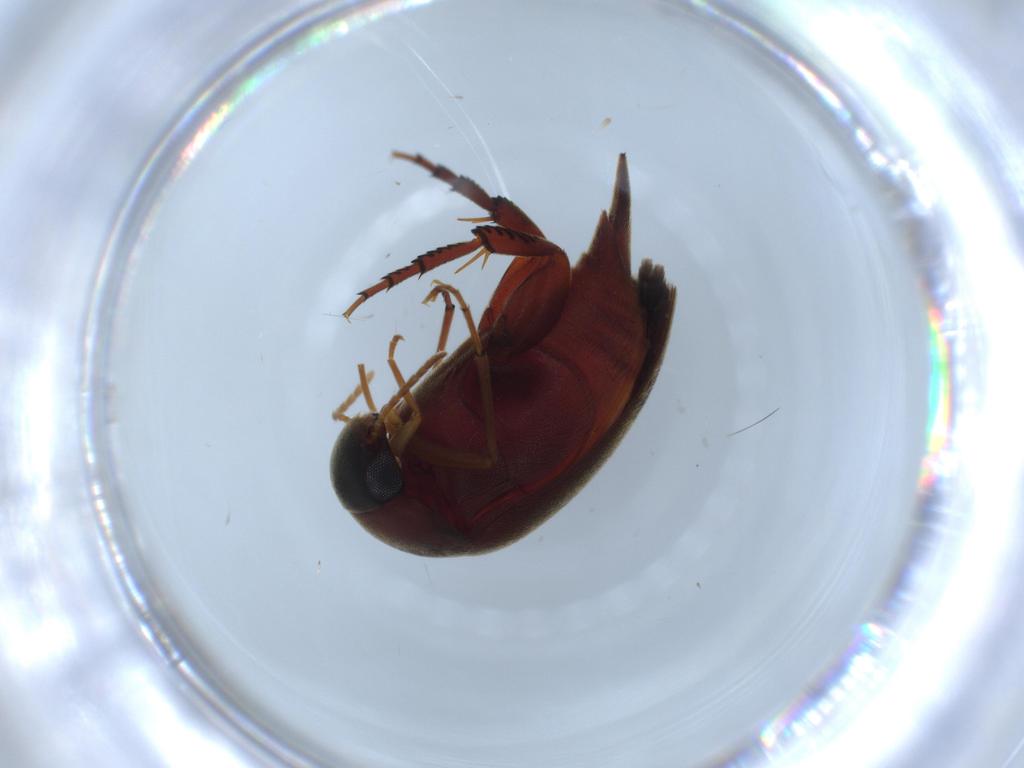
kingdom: Animalia
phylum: Arthropoda
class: Insecta
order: Coleoptera
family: Mordellidae
